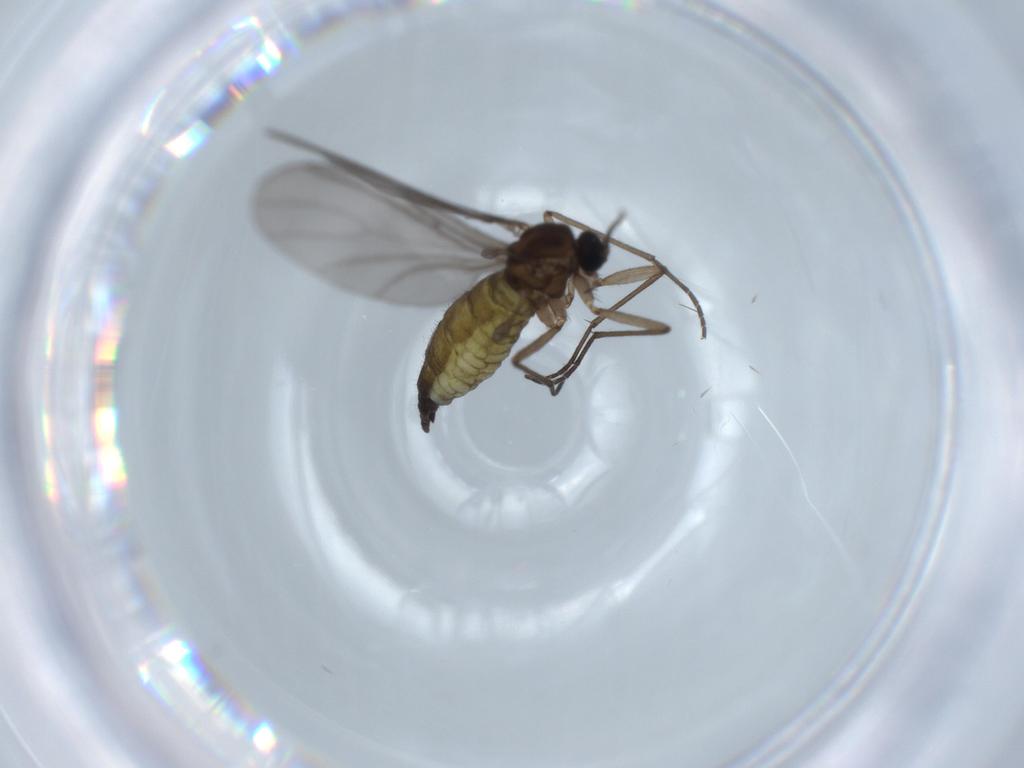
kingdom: Animalia
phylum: Arthropoda
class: Insecta
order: Diptera
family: Sciaridae
